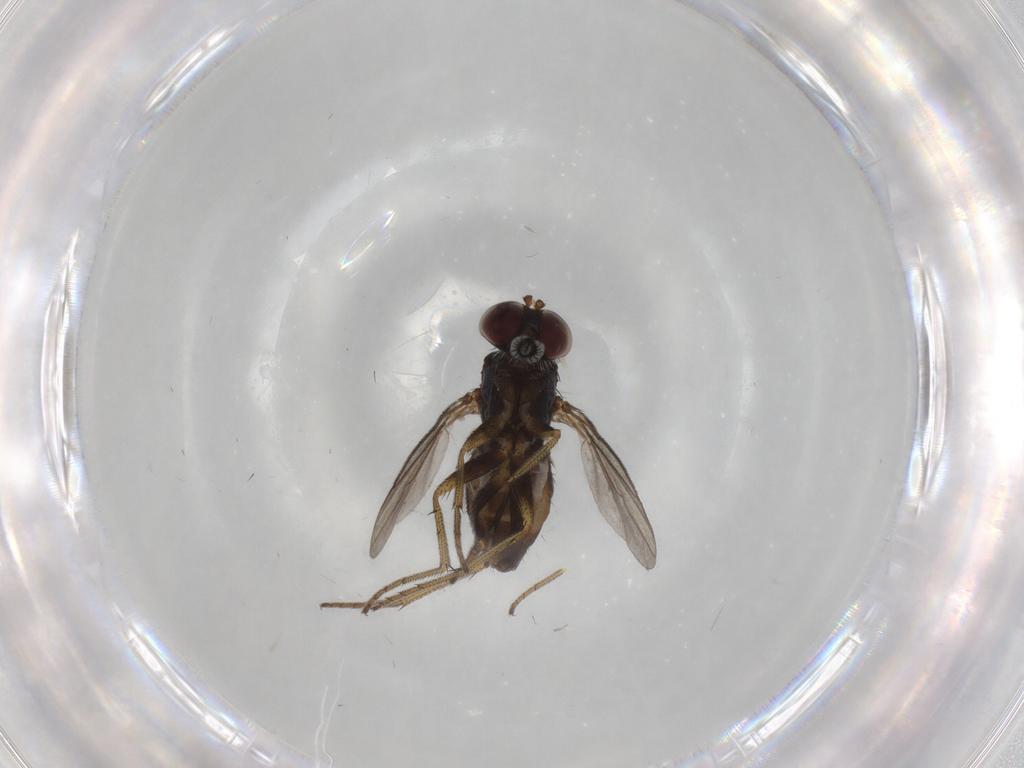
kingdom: Animalia
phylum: Arthropoda
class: Insecta
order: Diptera
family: Dolichopodidae
